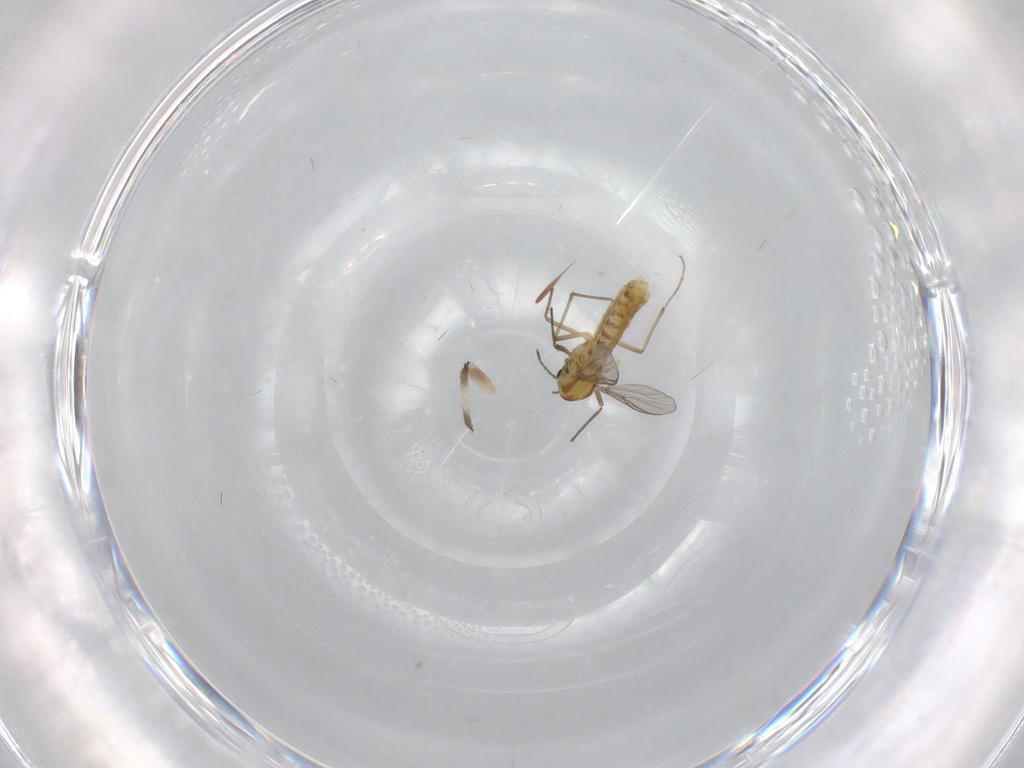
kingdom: Animalia
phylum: Arthropoda
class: Insecta
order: Diptera
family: Chironomidae
